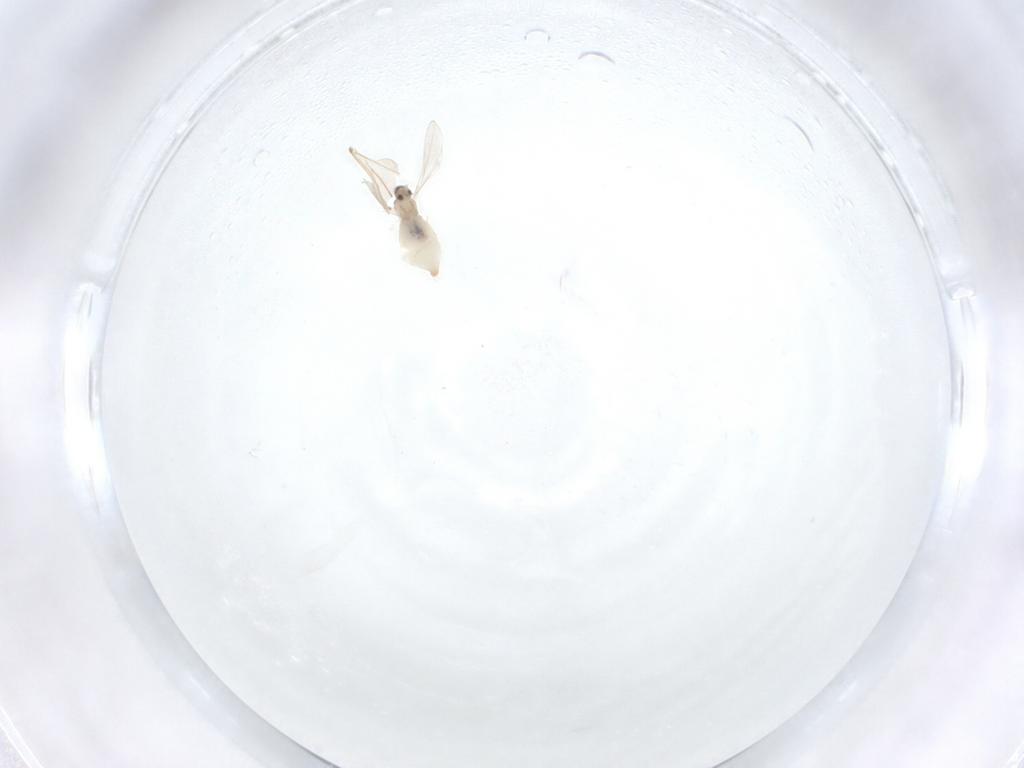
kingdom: Animalia
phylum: Arthropoda
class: Insecta
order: Diptera
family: Cecidomyiidae
